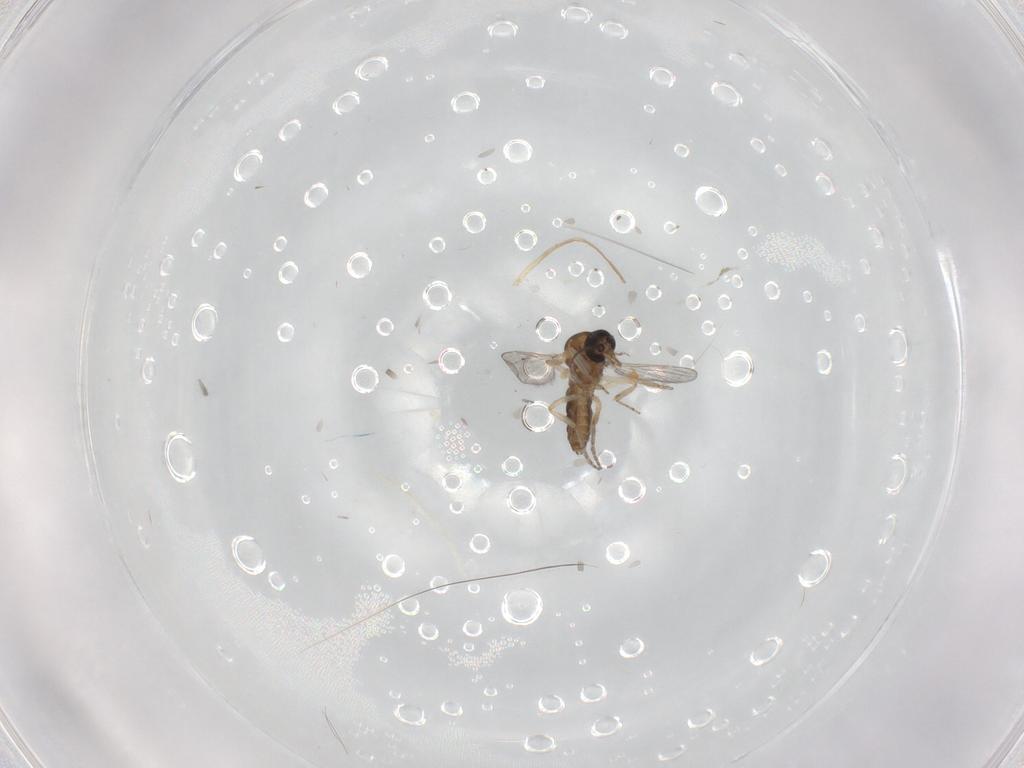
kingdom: Animalia
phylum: Arthropoda
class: Insecta
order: Diptera
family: Ceratopogonidae
